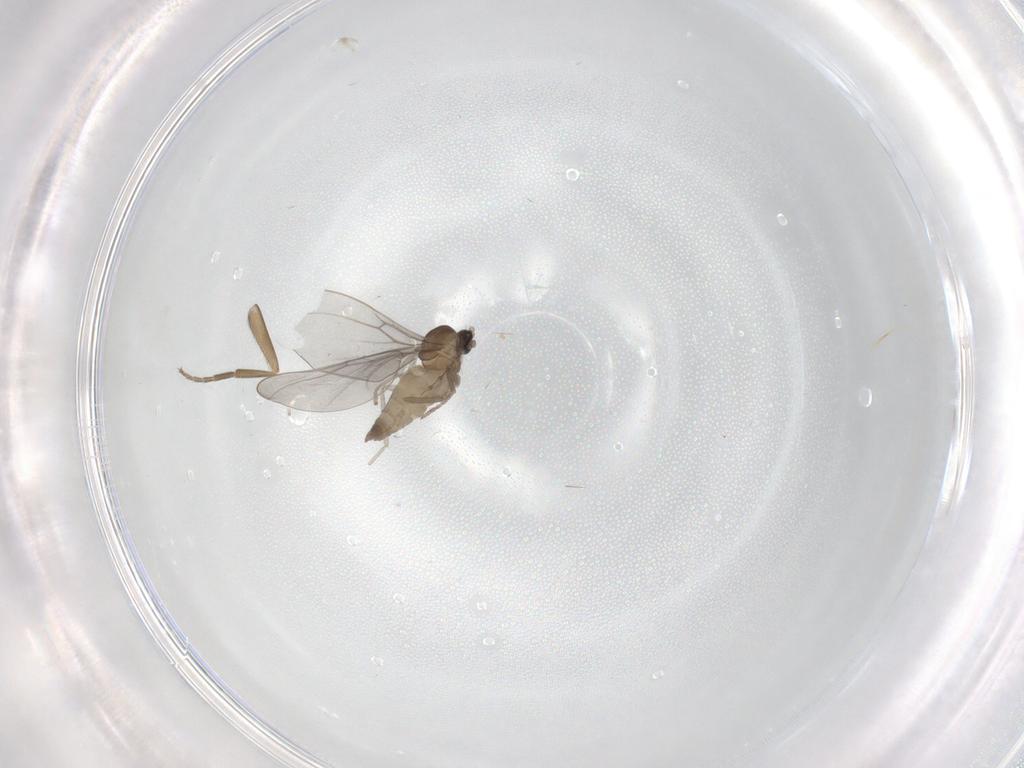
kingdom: Animalia
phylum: Arthropoda
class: Insecta
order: Diptera
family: Cecidomyiidae
